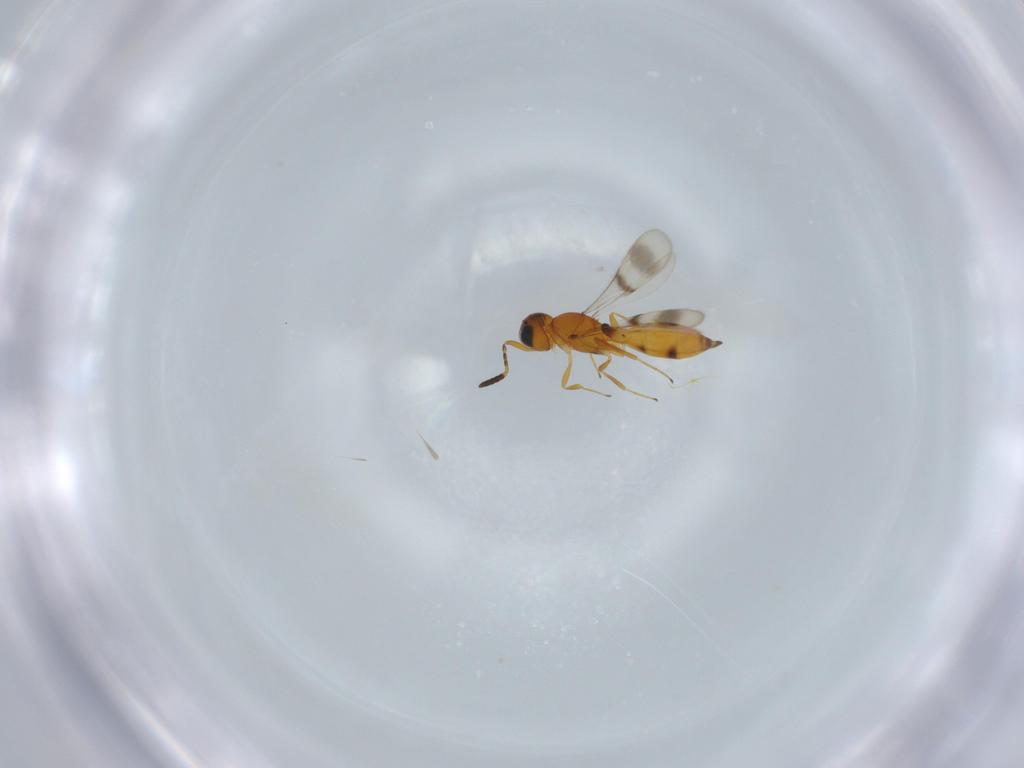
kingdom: Animalia
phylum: Arthropoda
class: Insecta
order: Hymenoptera
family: Scelionidae
